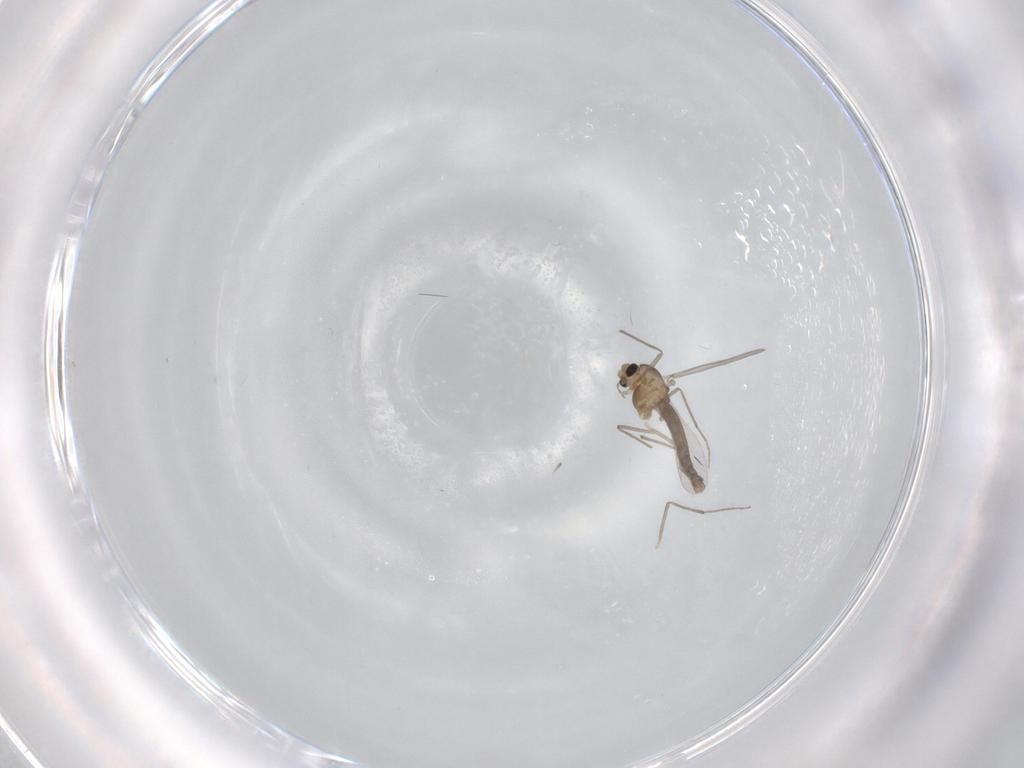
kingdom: Animalia
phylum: Arthropoda
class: Insecta
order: Diptera
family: Chironomidae
